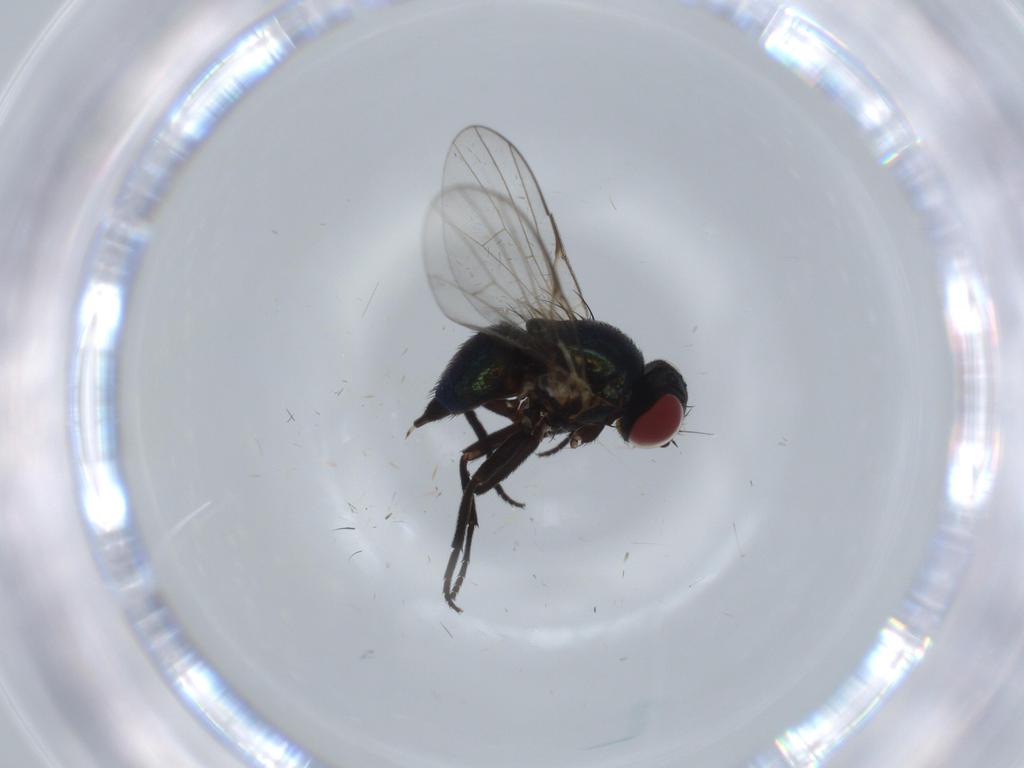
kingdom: Animalia
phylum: Arthropoda
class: Insecta
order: Diptera
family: Agromyzidae
